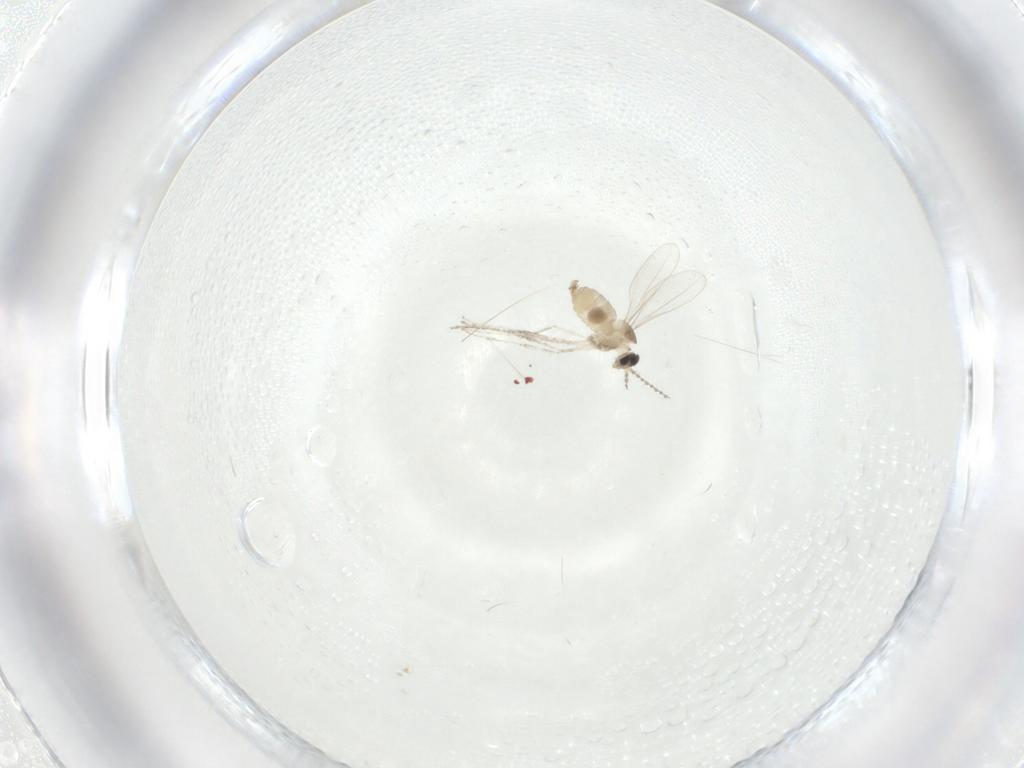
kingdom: Animalia
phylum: Arthropoda
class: Insecta
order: Diptera
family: Cecidomyiidae
